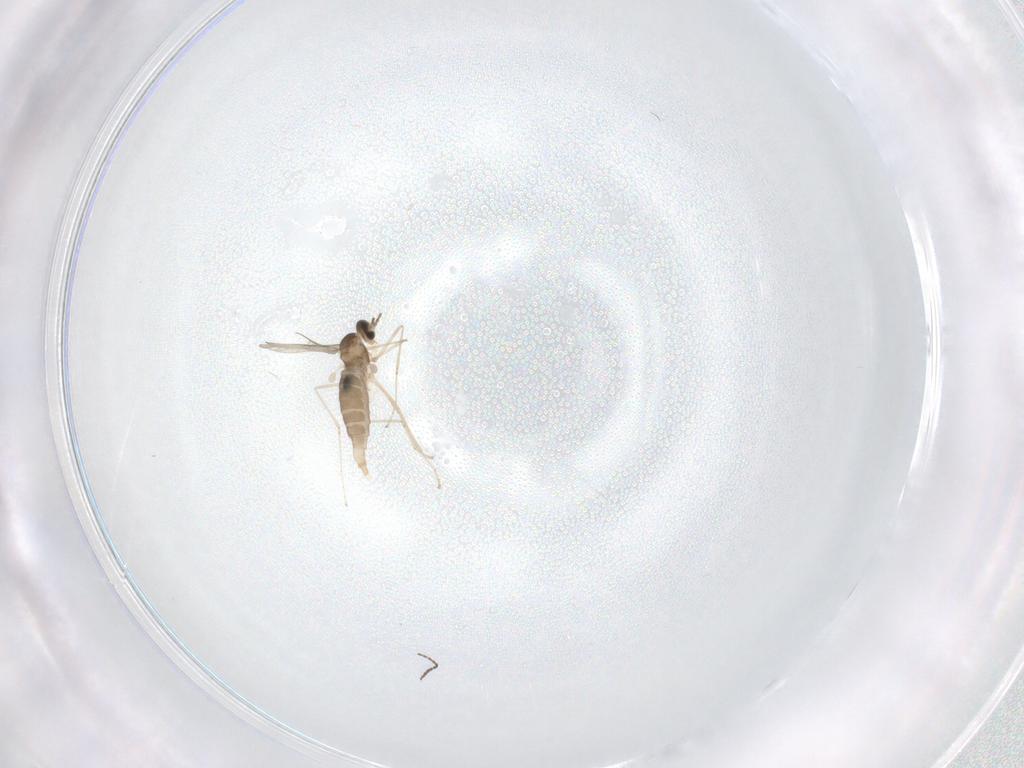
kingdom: Animalia
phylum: Arthropoda
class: Insecta
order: Diptera
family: Cecidomyiidae
